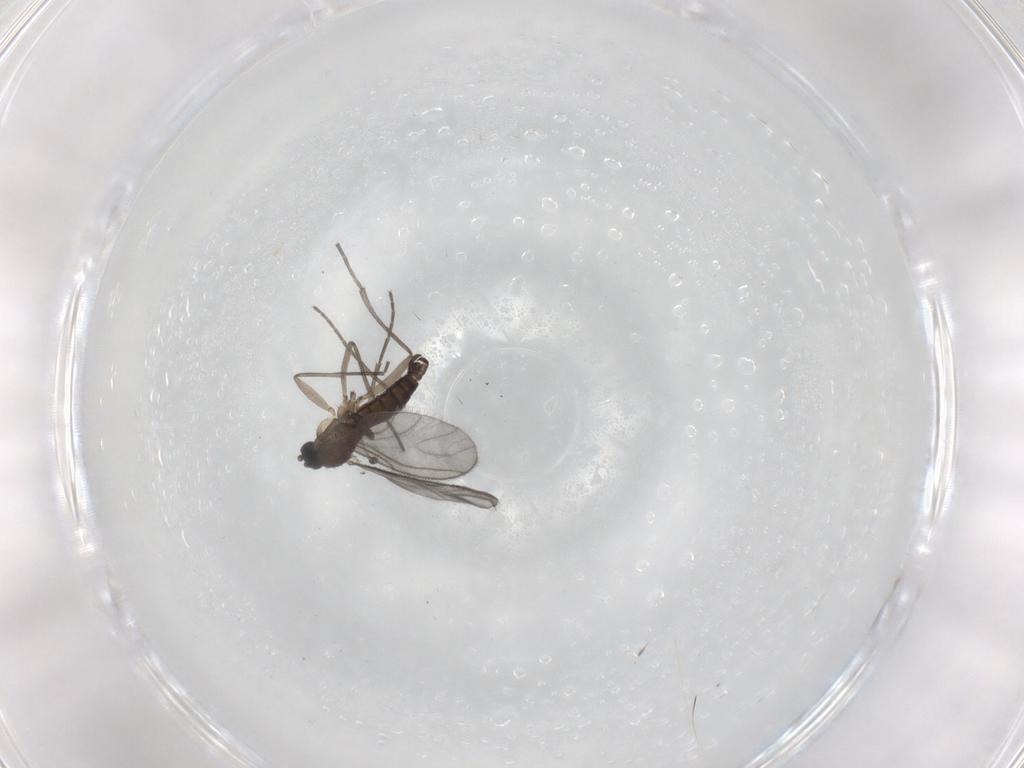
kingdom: Animalia
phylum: Arthropoda
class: Insecta
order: Diptera
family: Sciaridae
